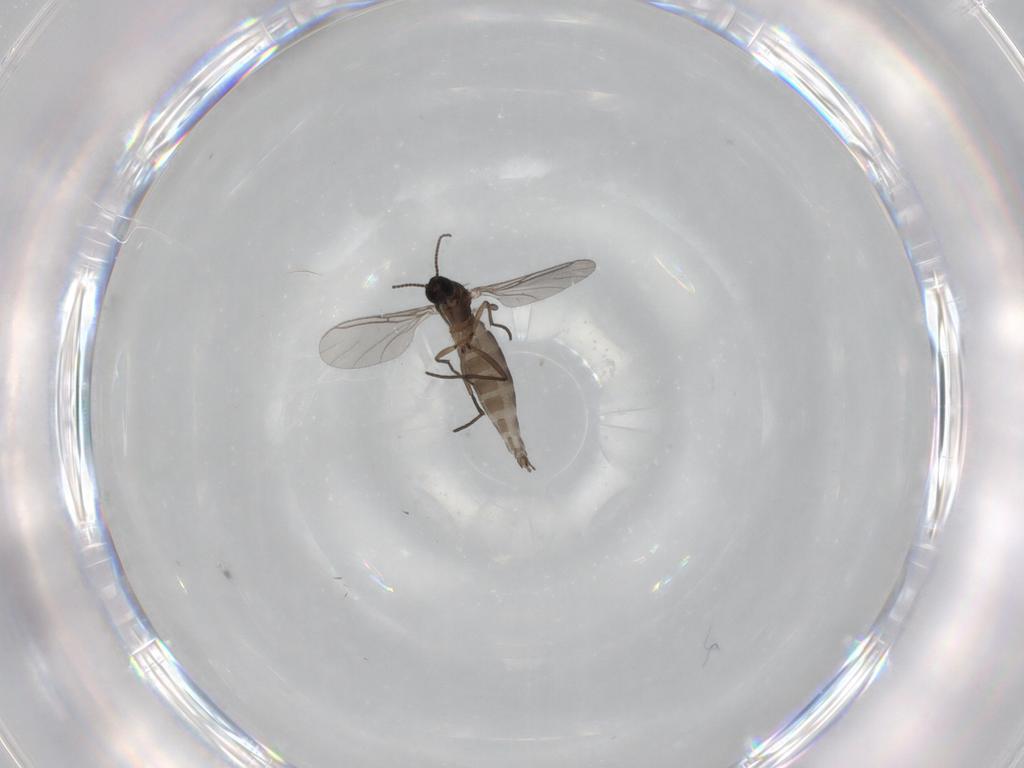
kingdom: Animalia
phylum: Arthropoda
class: Insecta
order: Diptera
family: Sciaridae
